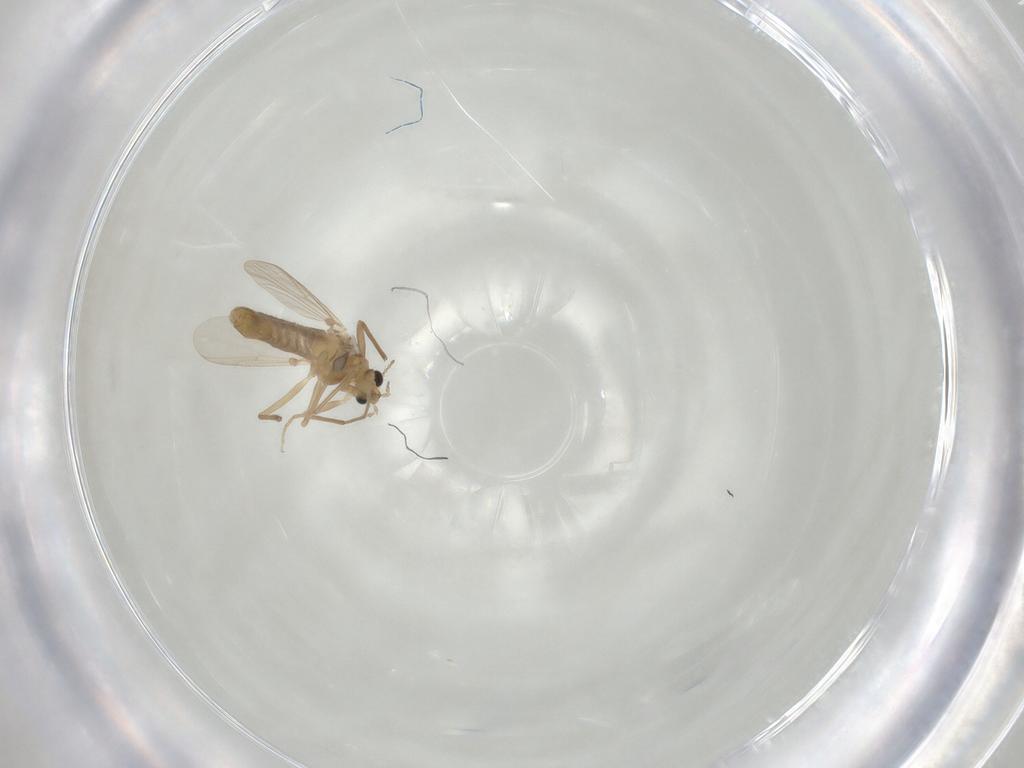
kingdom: Animalia
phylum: Arthropoda
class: Insecta
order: Diptera
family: Chironomidae
